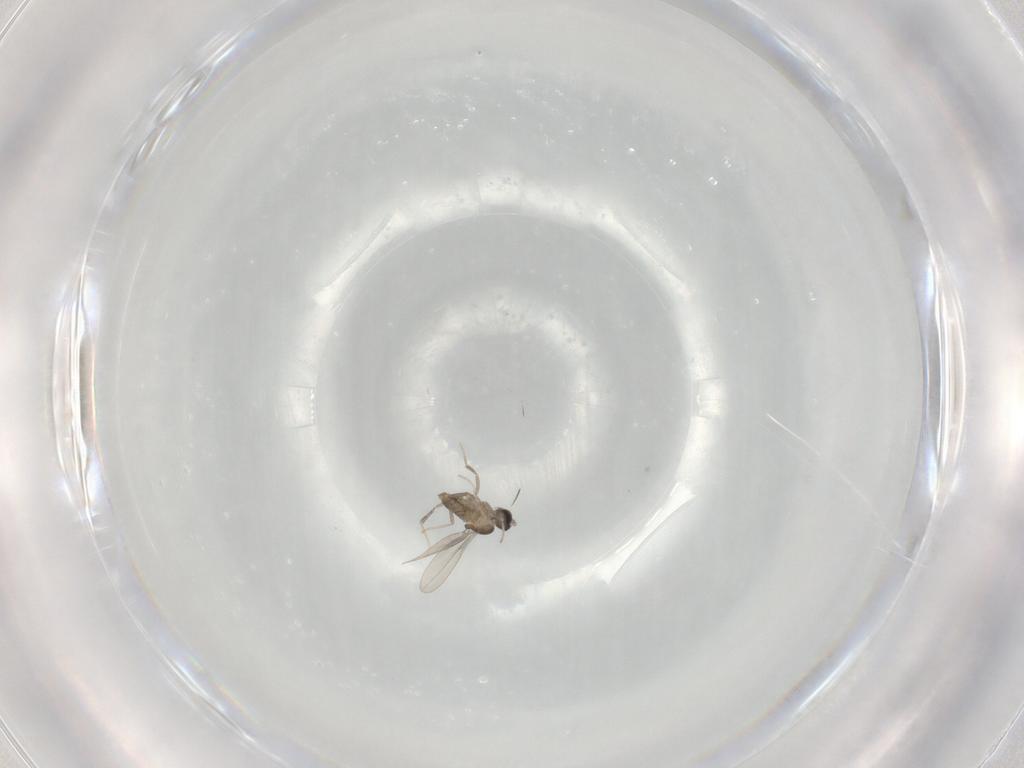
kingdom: Animalia
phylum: Arthropoda
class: Insecta
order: Diptera
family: Cecidomyiidae
